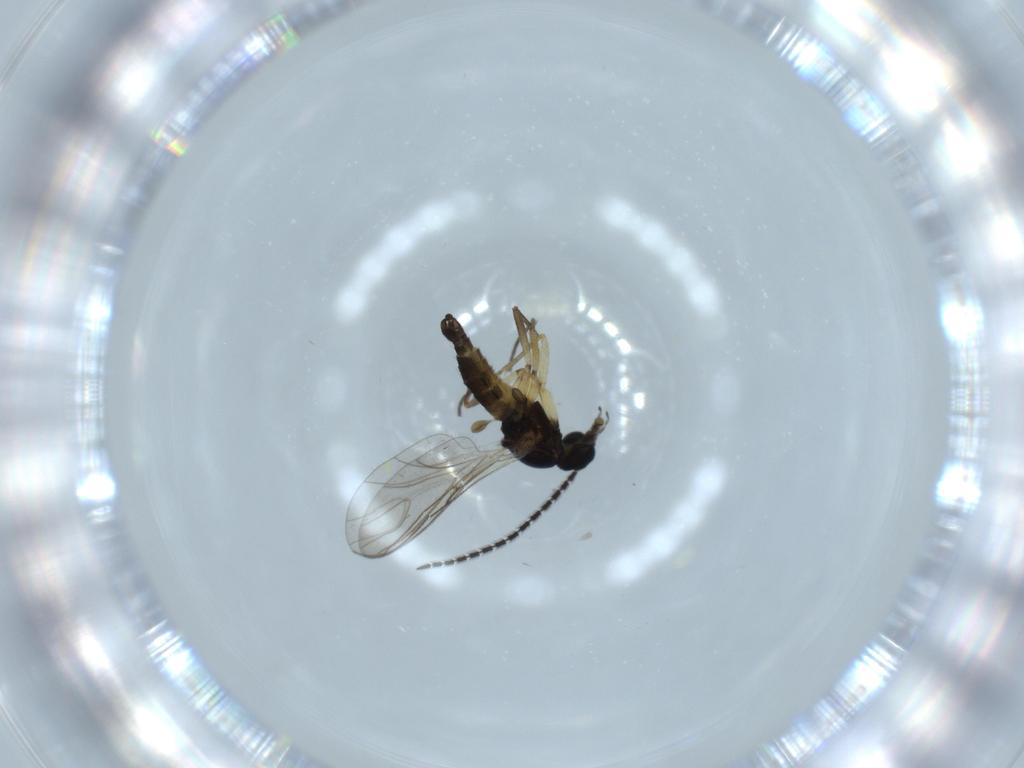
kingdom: Animalia
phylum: Arthropoda
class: Insecta
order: Diptera
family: Sciaridae
